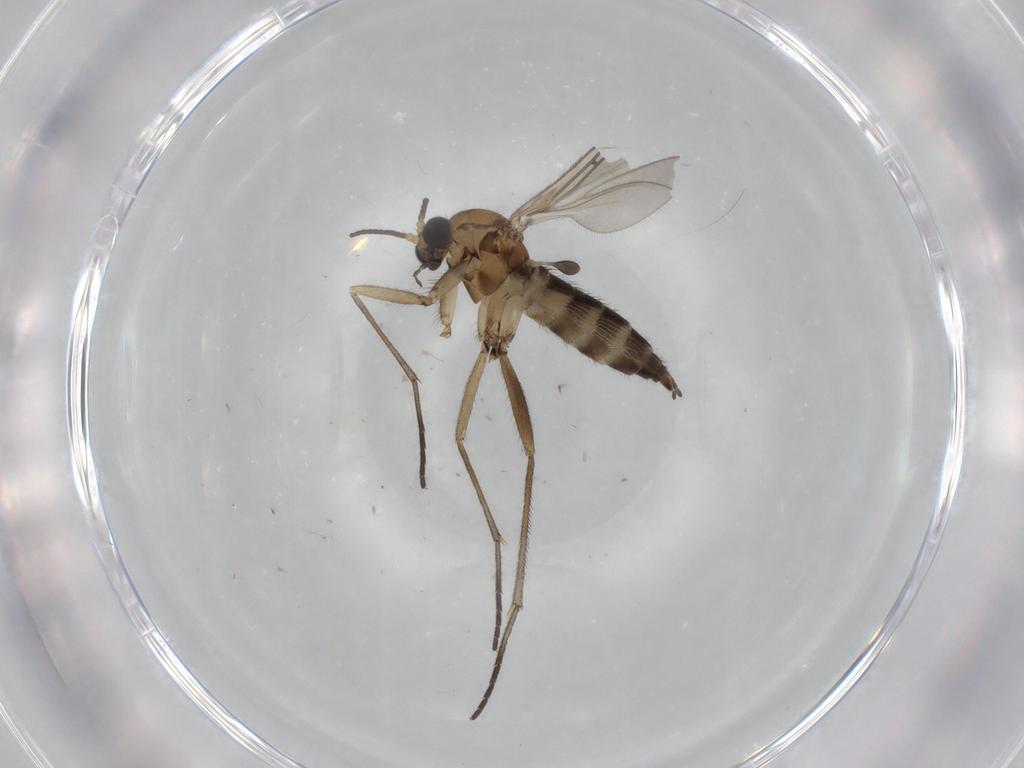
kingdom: Animalia
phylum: Arthropoda
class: Insecta
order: Diptera
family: Sciaridae
